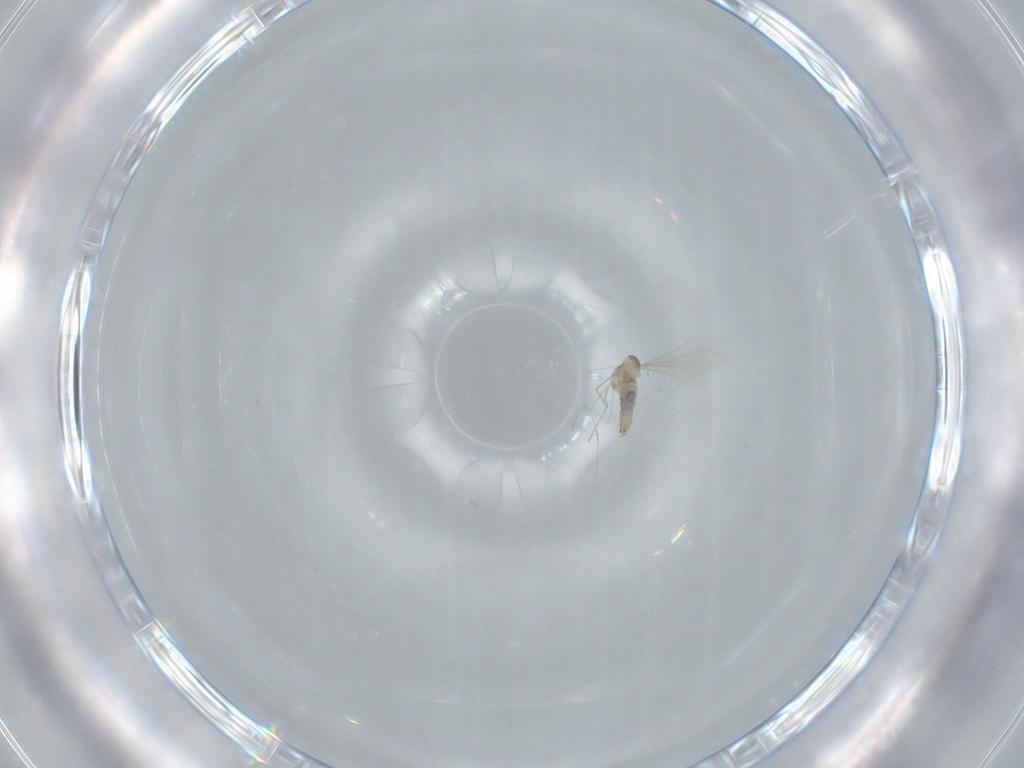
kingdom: Animalia
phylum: Arthropoda
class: Insecta
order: Diptera
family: Cecidomyiidae
